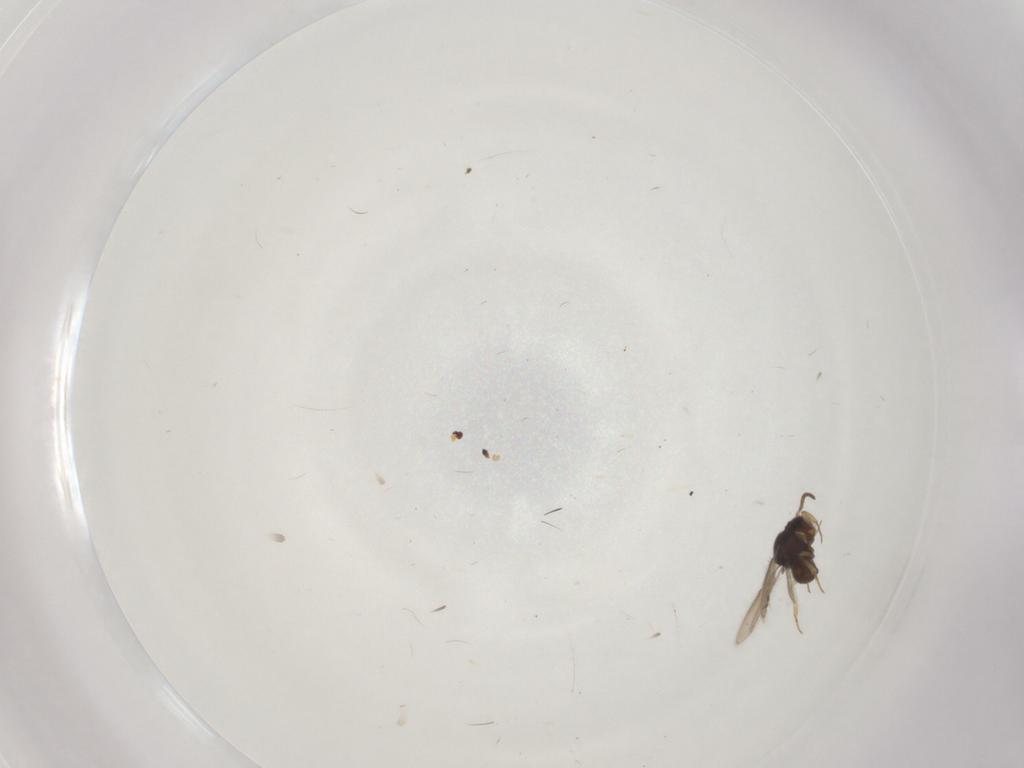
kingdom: Animalia
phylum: Arthropoda
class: Insecta
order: Hymenoptera
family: Scelionidae
